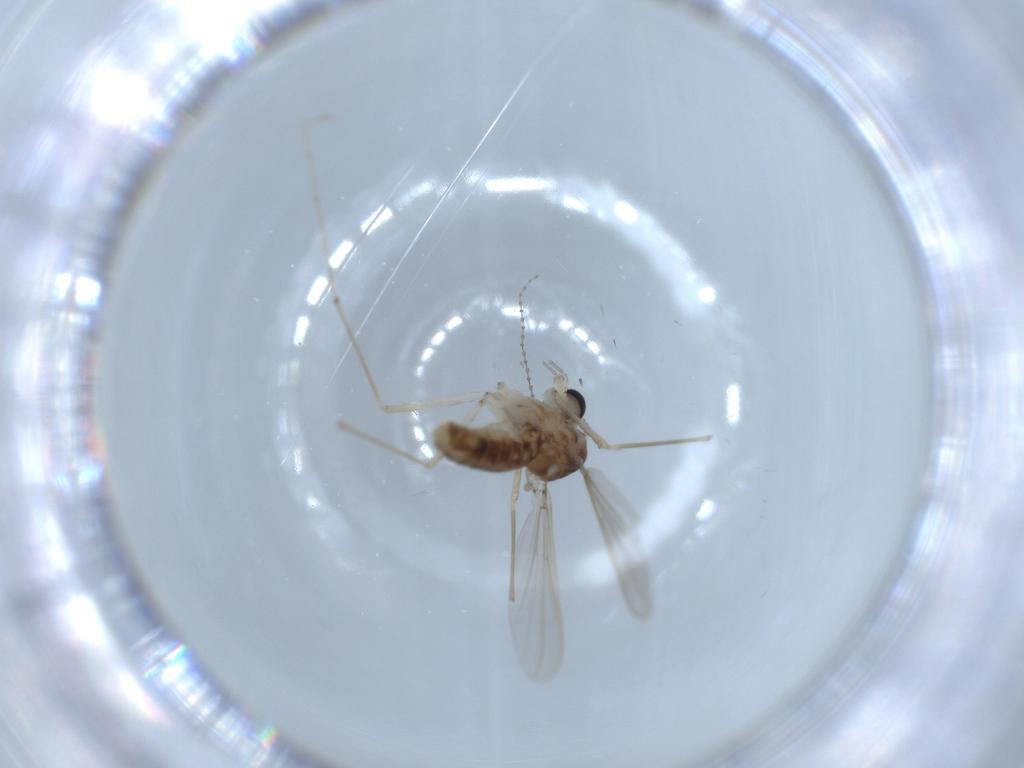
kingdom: Animalia
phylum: Arthropoda
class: Insecta
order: Diptera
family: Chironomidae
